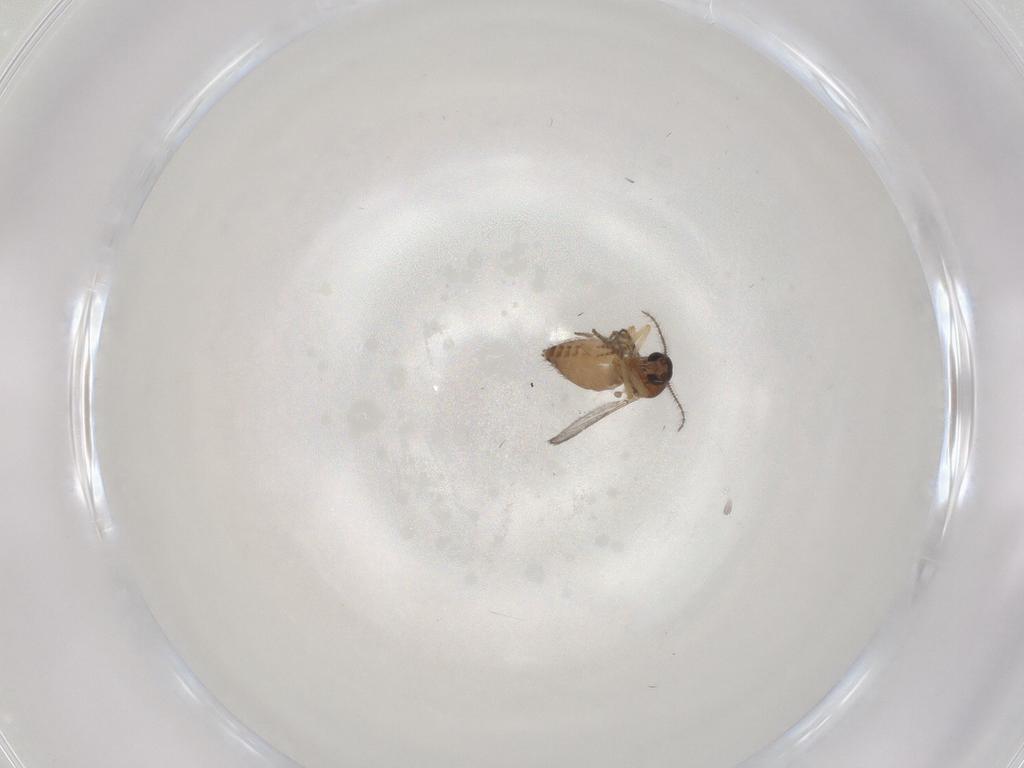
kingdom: Animalia
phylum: Arthropoda
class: Insecta
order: Diptera
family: Ceratopogonidae
